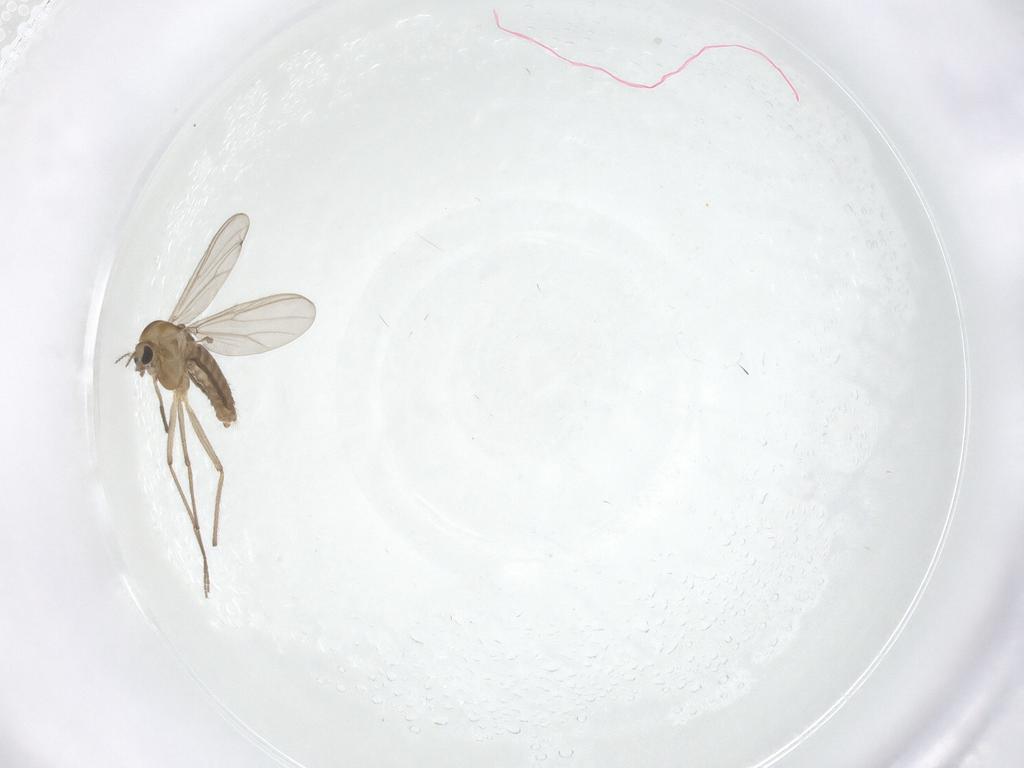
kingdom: Animalia
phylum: Arthropoda
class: Insecta
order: Diptera
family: Chironomidae
